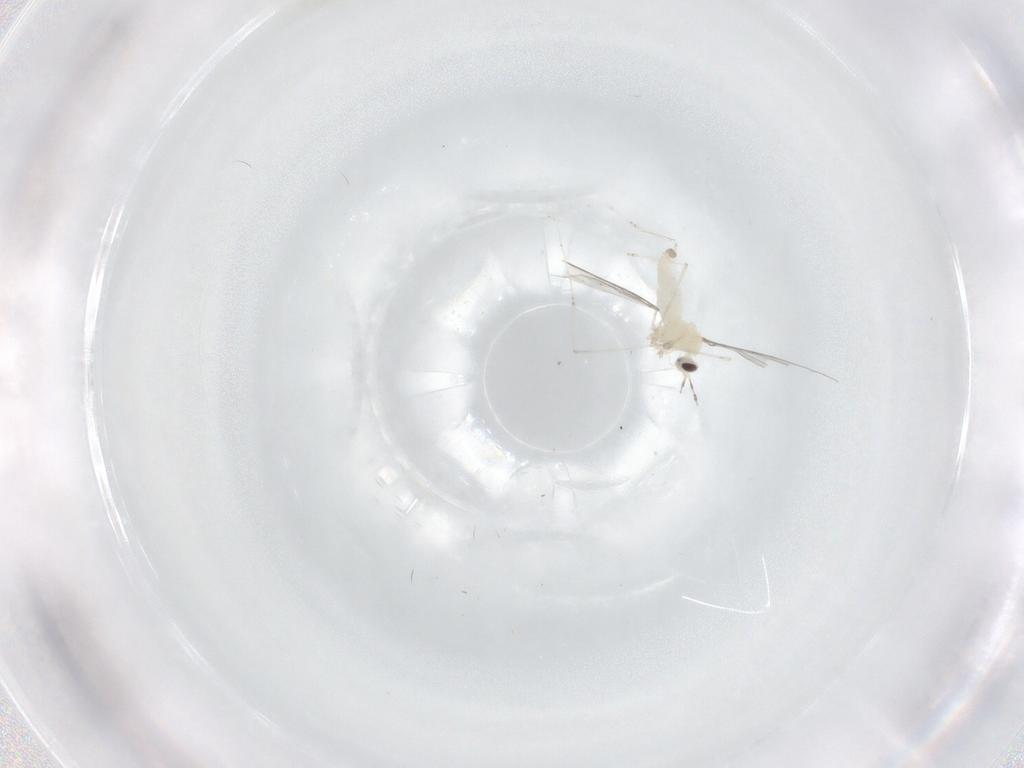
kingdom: Animalia
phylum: Arthropoda
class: Insecta
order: Diptera
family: Cecidomyiidae
